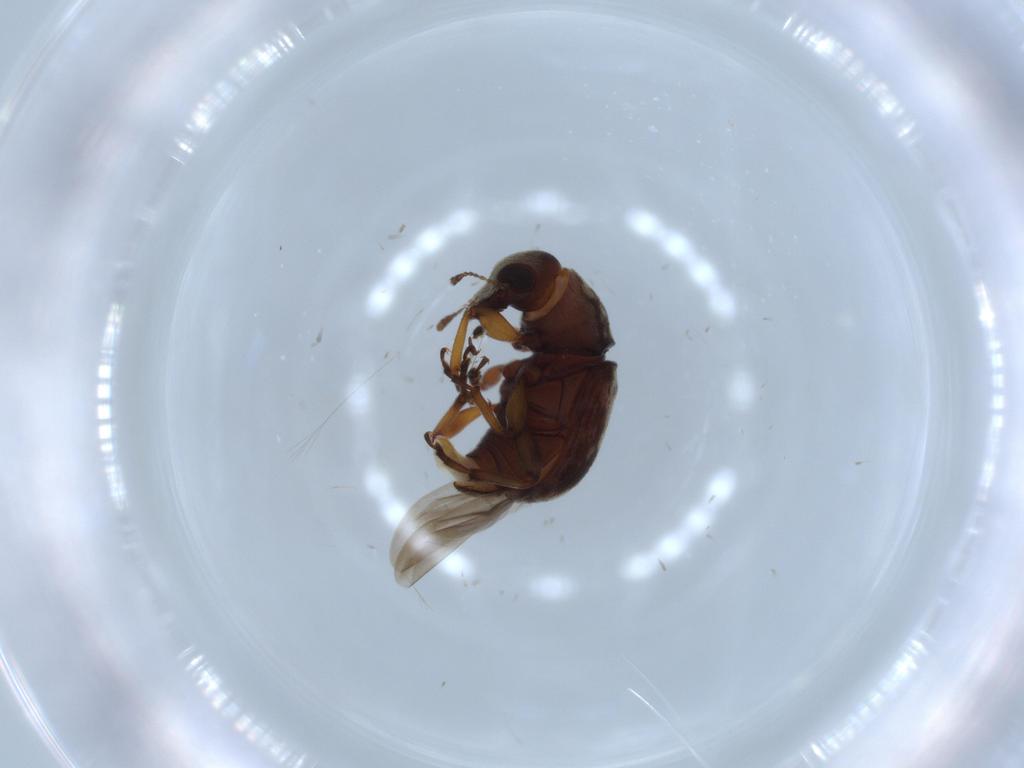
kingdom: Animalia
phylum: Arthropoda
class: Insecta
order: Coleoptera
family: Anthribidae
